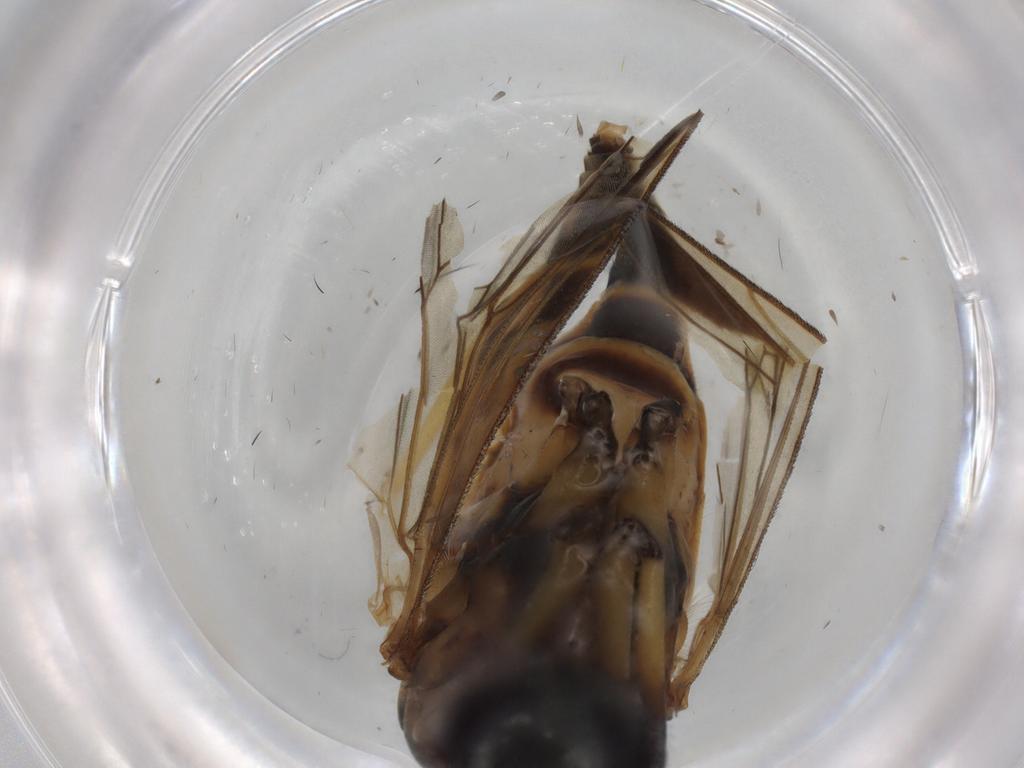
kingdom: Animalia
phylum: Arthropoda
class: Insecta
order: Diptera
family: Rhagionidae
